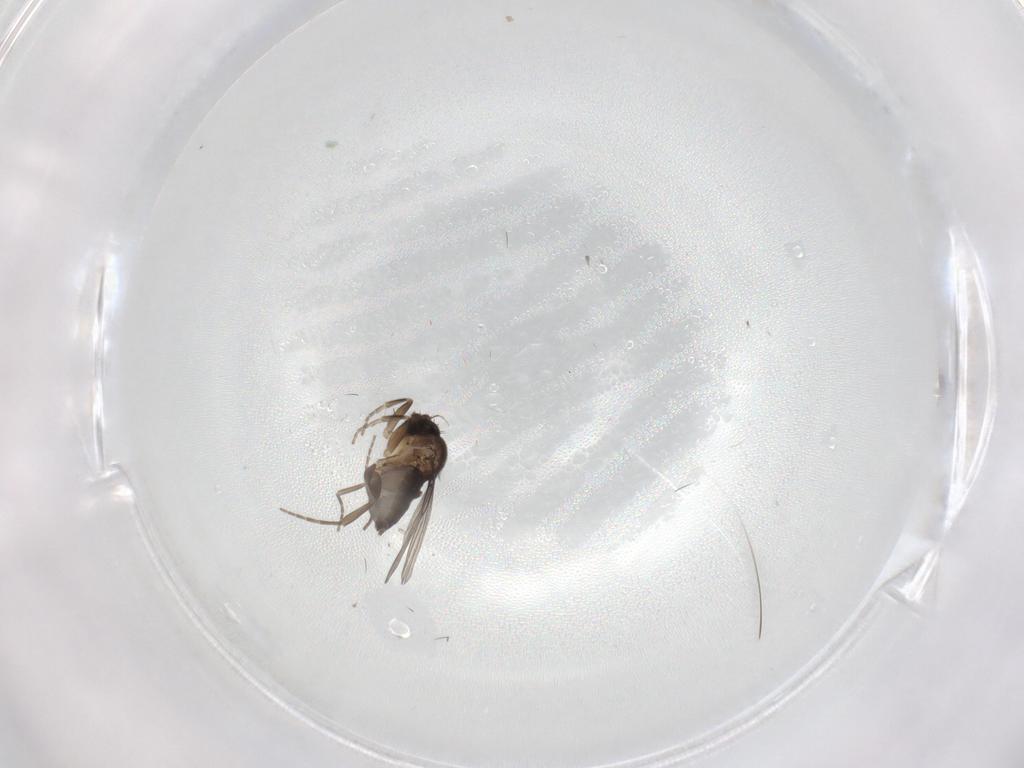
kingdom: Animalia
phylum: Arthropoda
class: Insecta
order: Diptera
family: Phoridae
